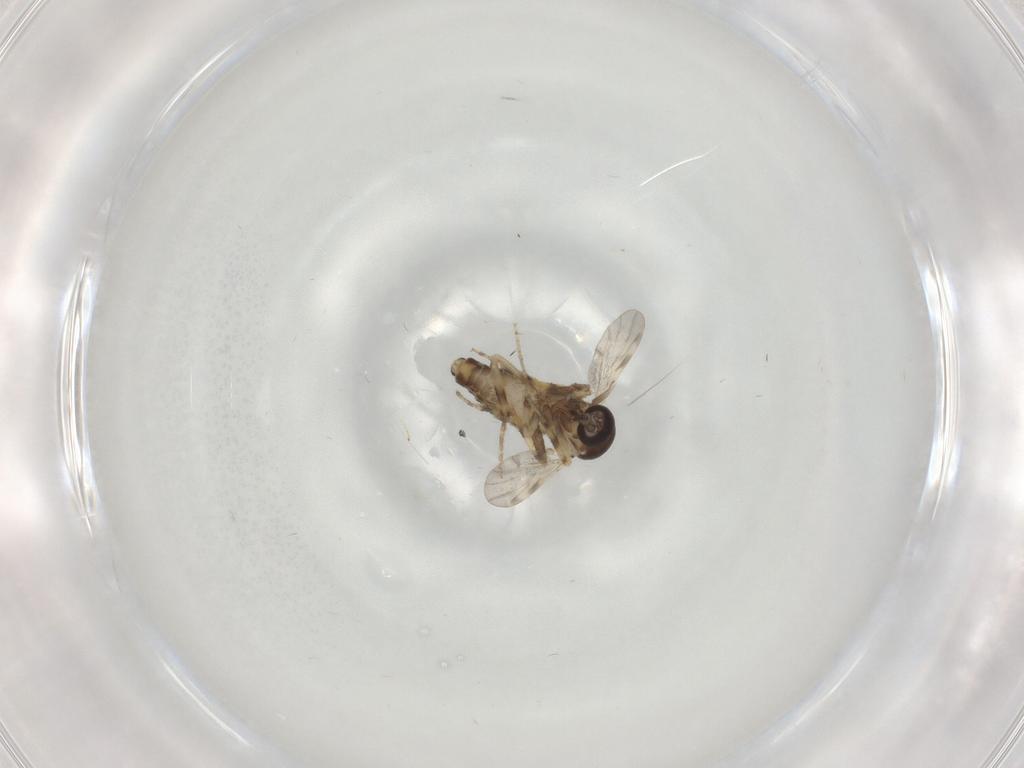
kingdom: Animalia
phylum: Arthropoda
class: Insecta
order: Diptera
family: Ceratopogonidae
